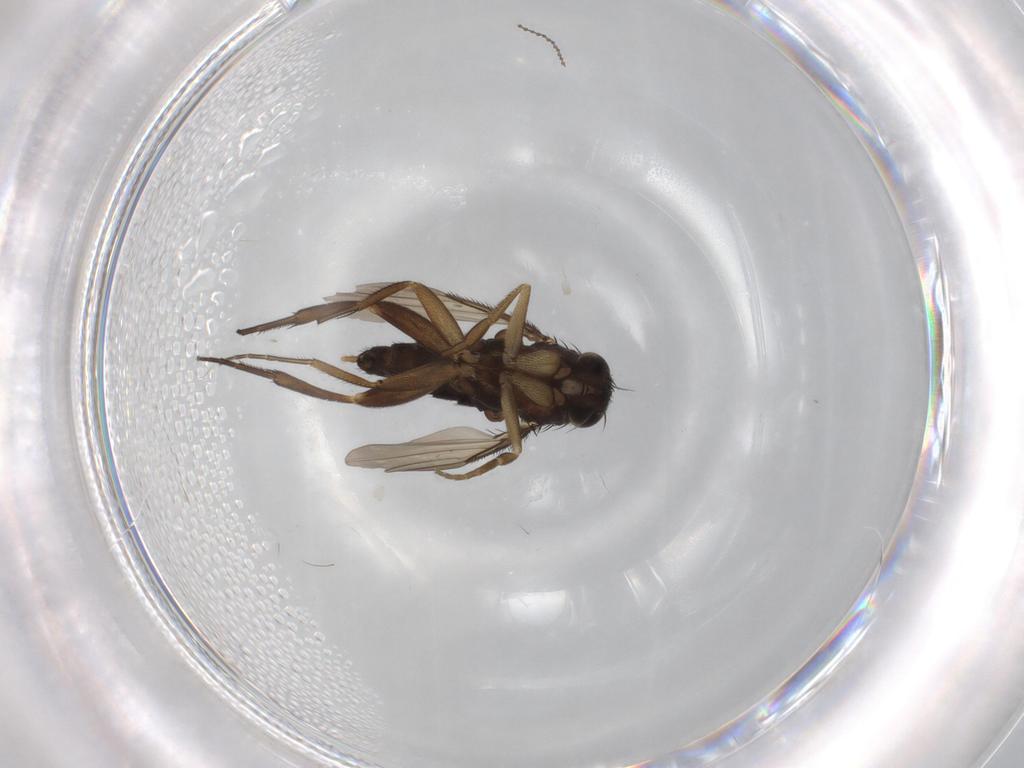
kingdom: Animalia
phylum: Arthropoda
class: Insecta
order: Diptera
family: Phoridae
